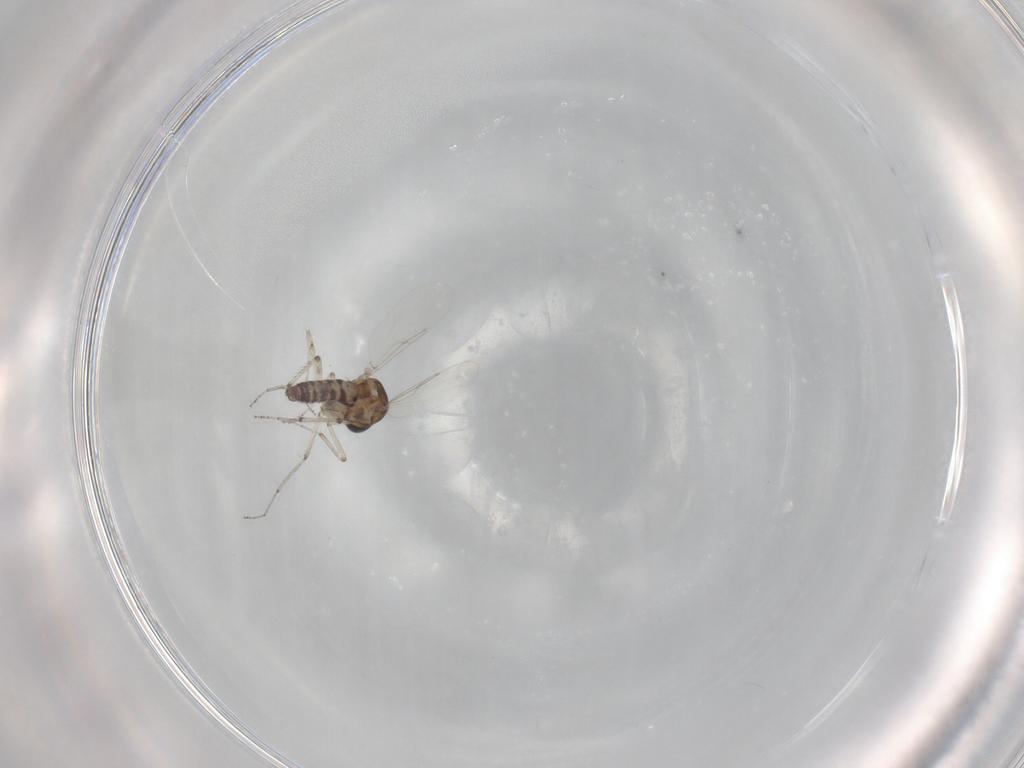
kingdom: Animalia
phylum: Arthropoda
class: Insecta
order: Diptera
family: Ceratopogonidae
